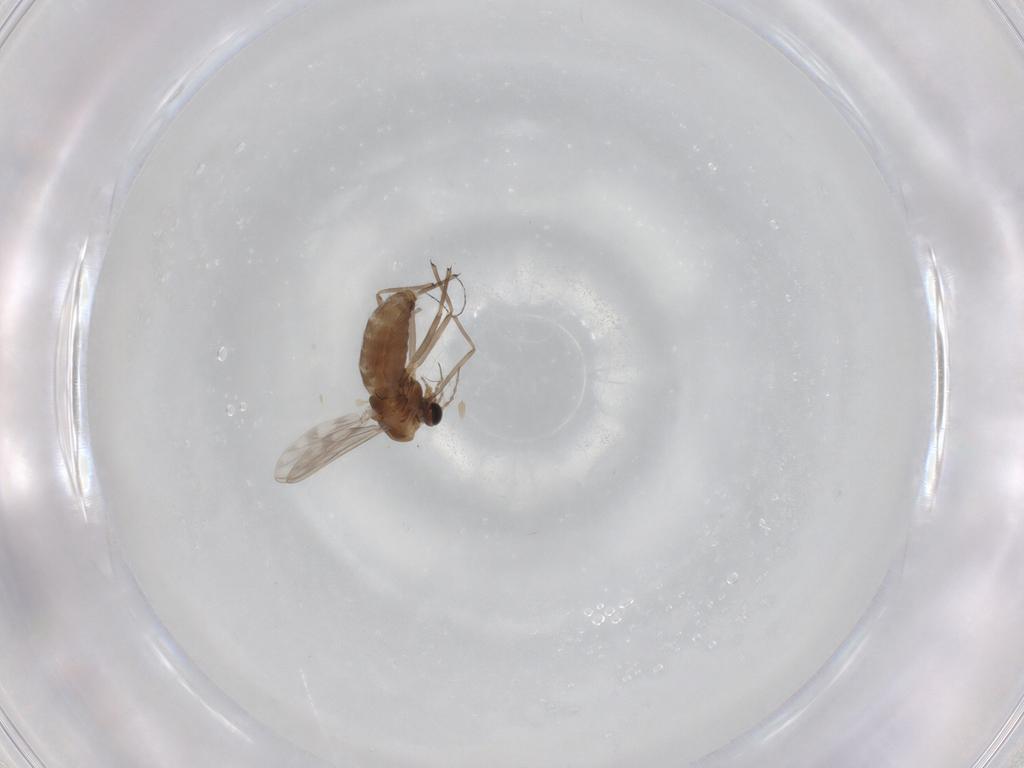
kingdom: Animalia
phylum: Arthropoda
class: Insecta
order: Diptera
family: Chironomidae
